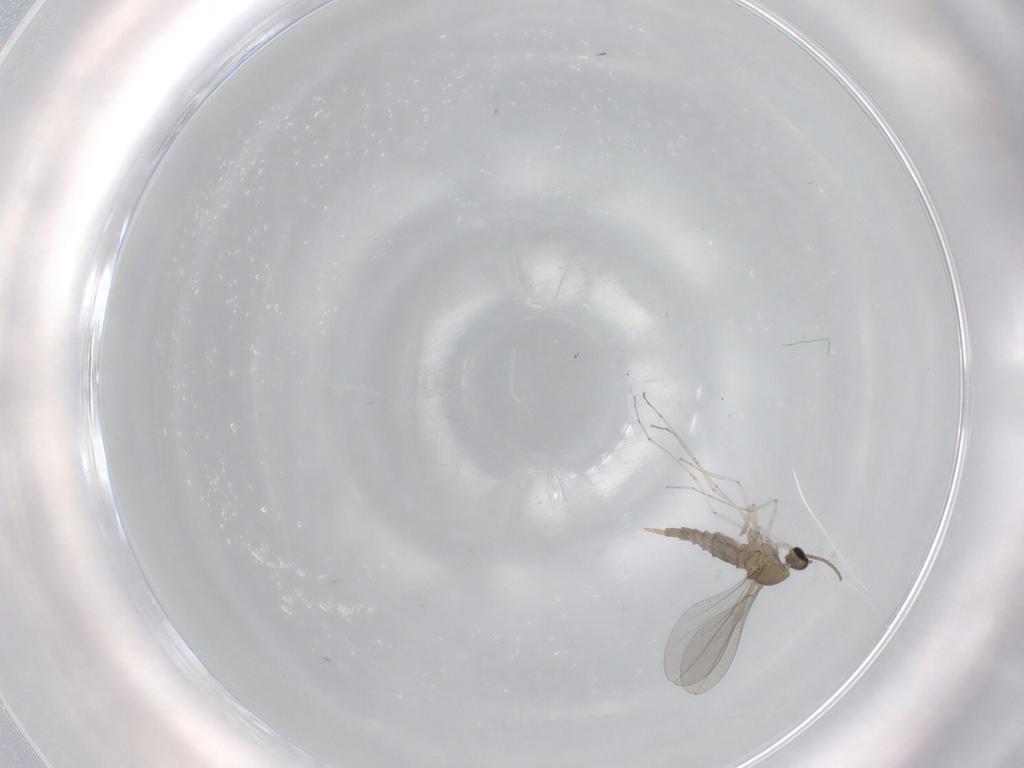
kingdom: Animalia
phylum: Arthropoda
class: Insecta
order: Diptera
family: Cecidomyiidae
